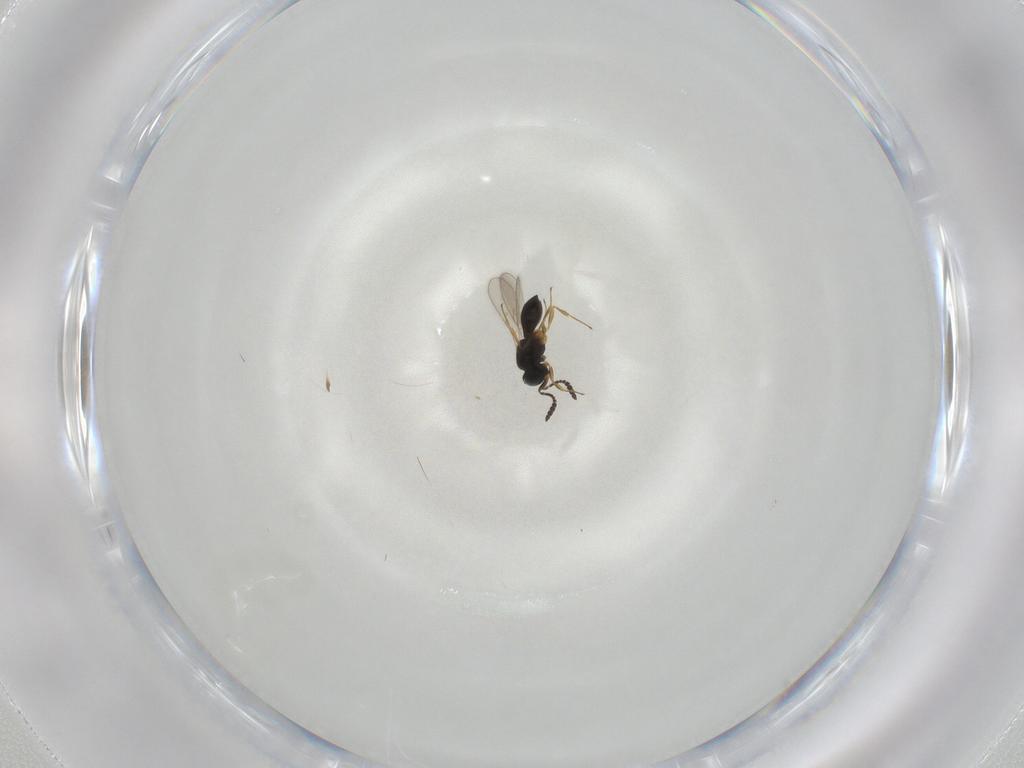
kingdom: Animalia
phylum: Arthropoda
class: Insecta
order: Hymenoptera
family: Scelionidae
